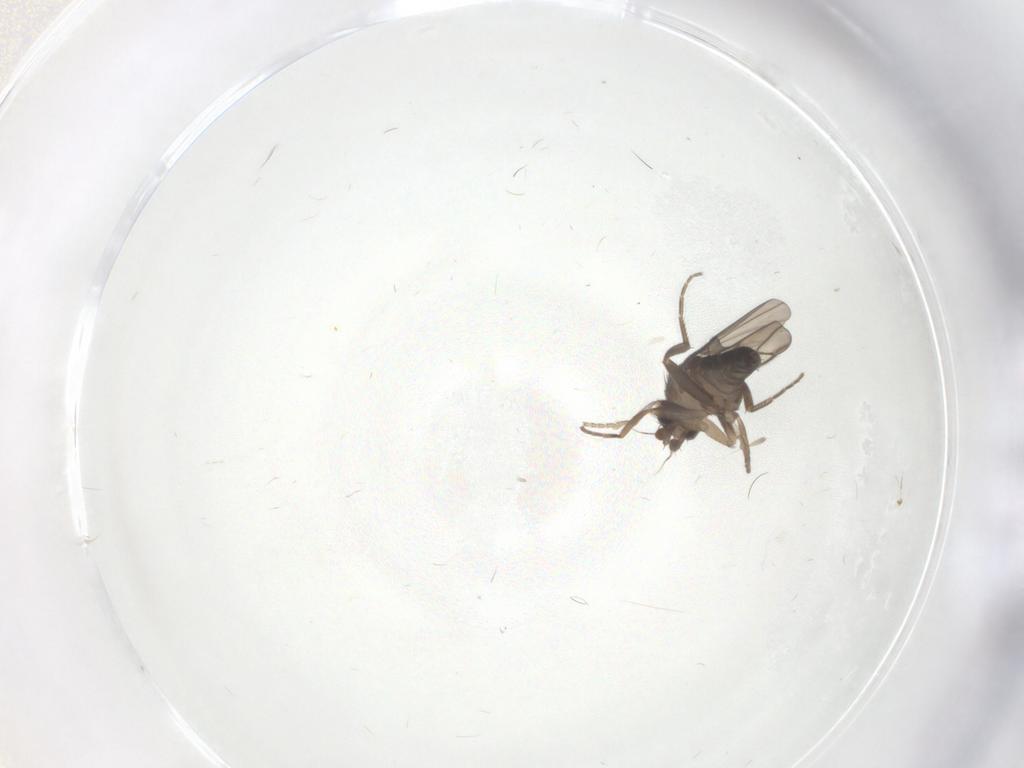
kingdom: Animalia
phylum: Arthropoda
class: Insecta
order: Diptera
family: Cecidomyiidae
